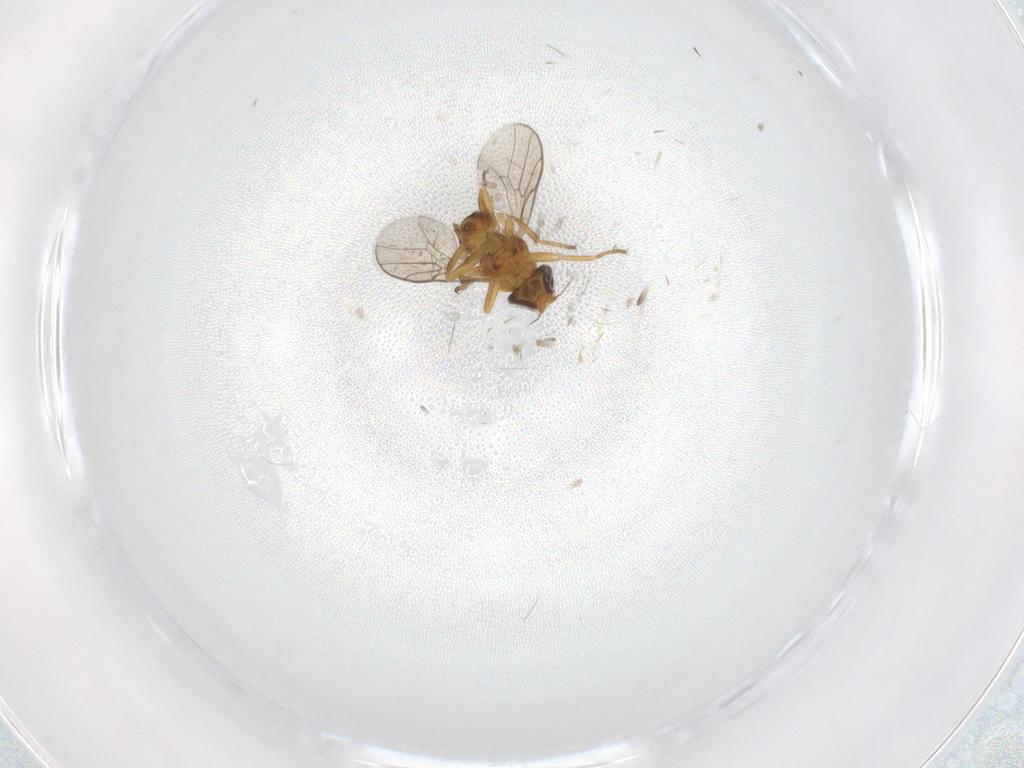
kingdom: Animalia
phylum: Arthropoda
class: Insecta
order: Diptera
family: Chloropidae
